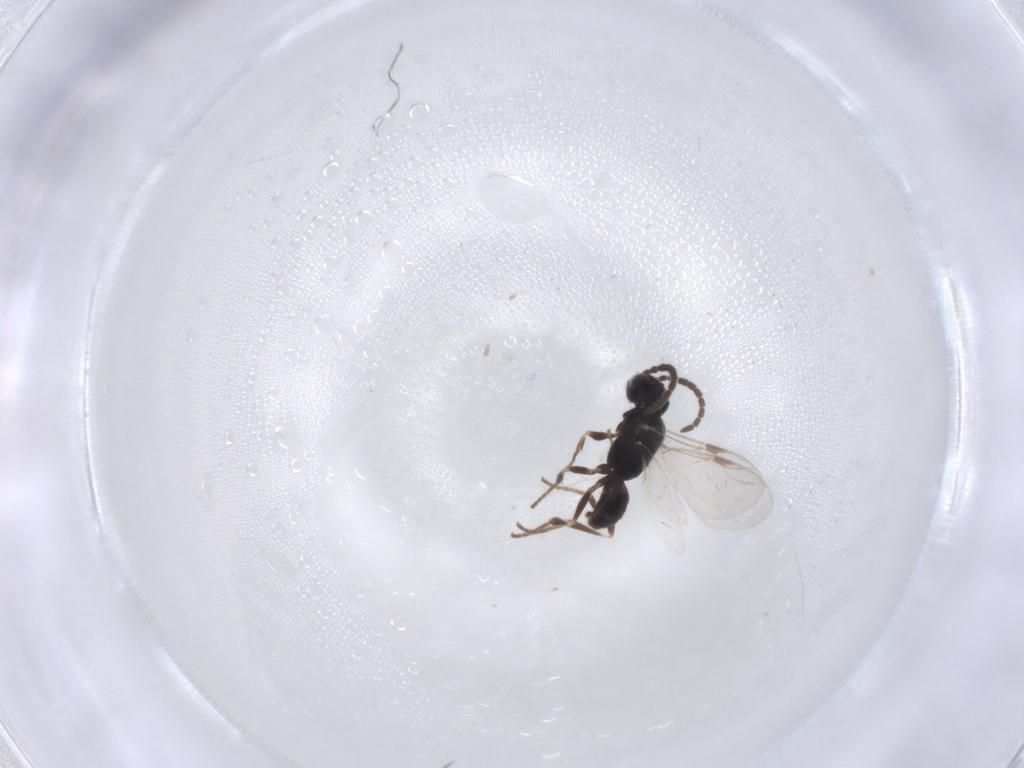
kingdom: Animalia
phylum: Arthropoda
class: Insecta
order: Hymenoptera
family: Dryinidae
